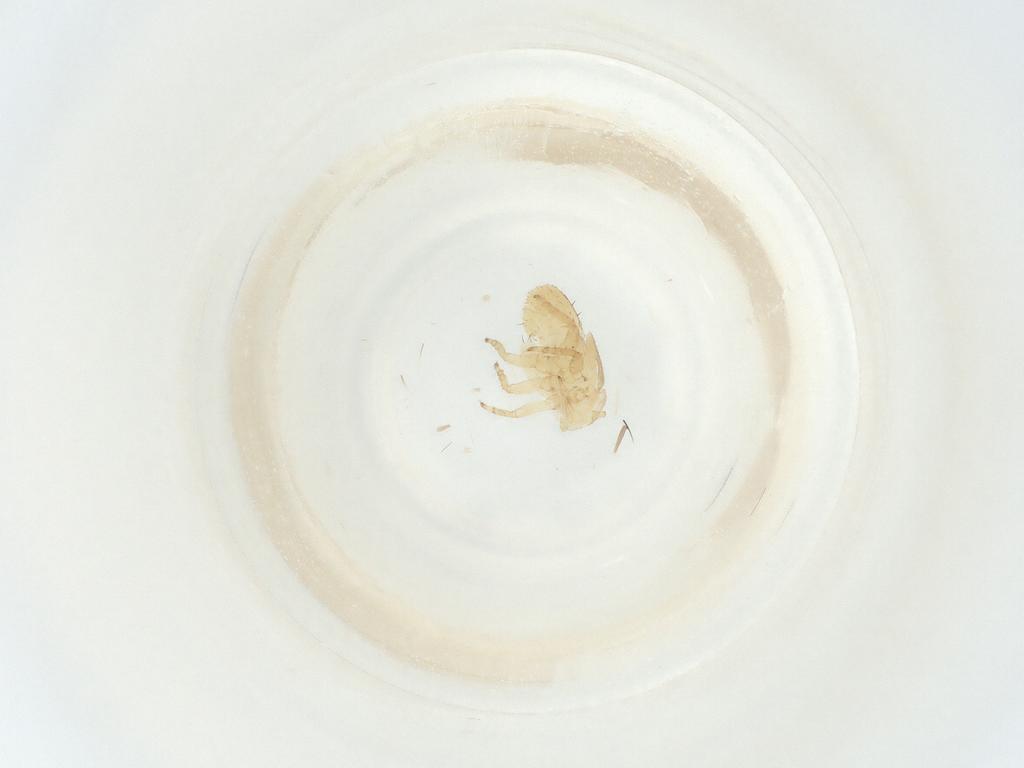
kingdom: Animalia
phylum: Arthropoda
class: Insecta
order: Hemiptera
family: Psyllidae
